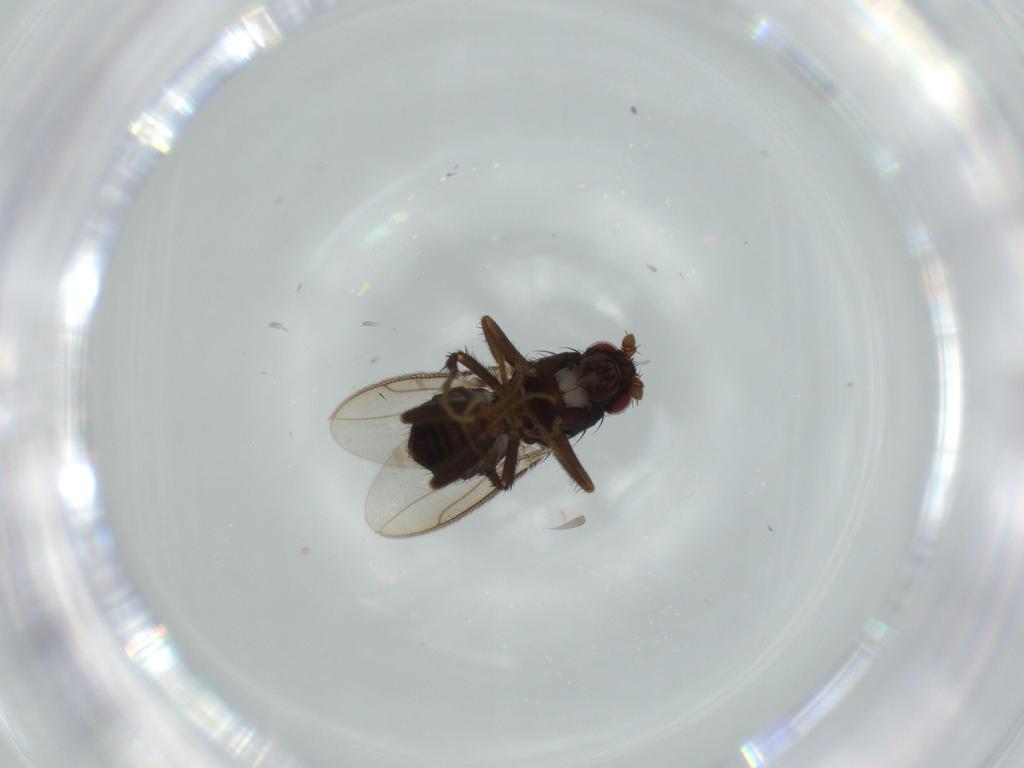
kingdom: Animalia
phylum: Arthropoda
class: Insecta
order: Diptera
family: Sphaeroceridae
